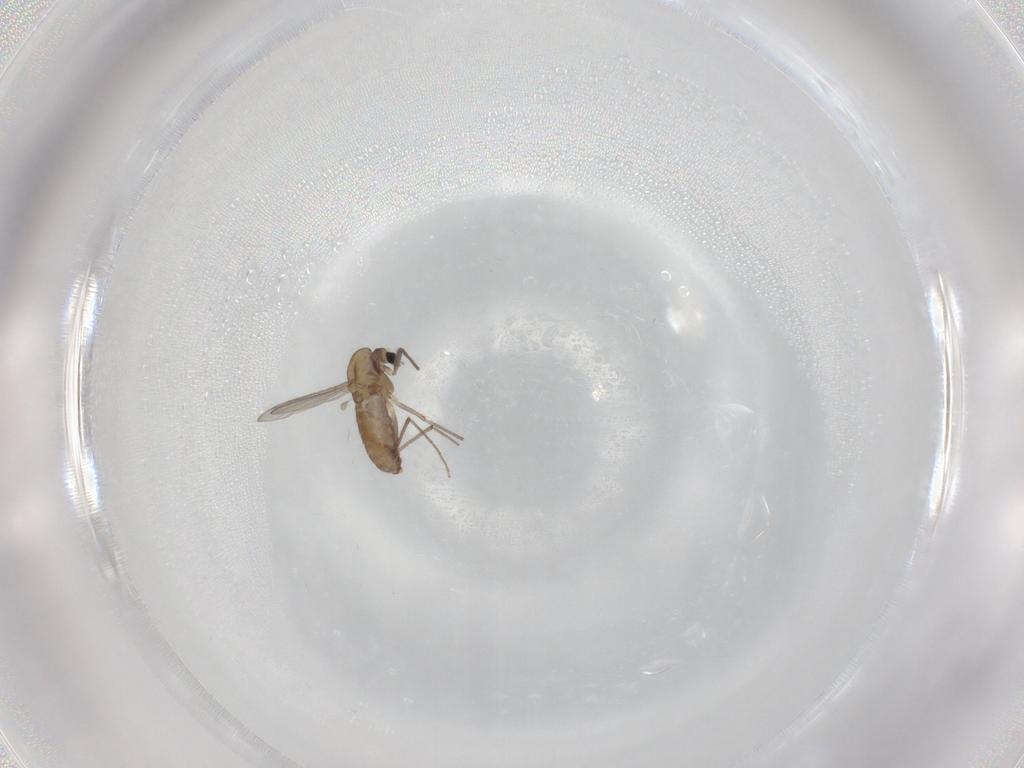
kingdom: Animalia
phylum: Arthropoda
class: Insecta
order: Diptera
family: Chironomidae
